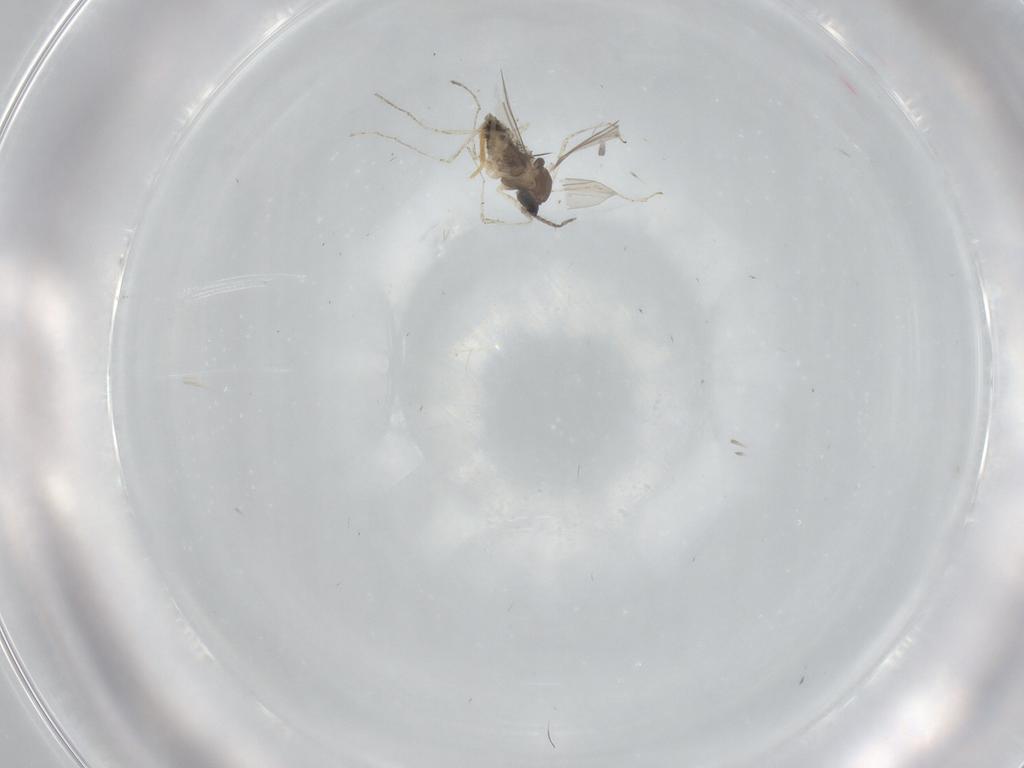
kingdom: Animalia
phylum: Arthropoda
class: Insecta
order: Diptera
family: Cecidomyiidae
